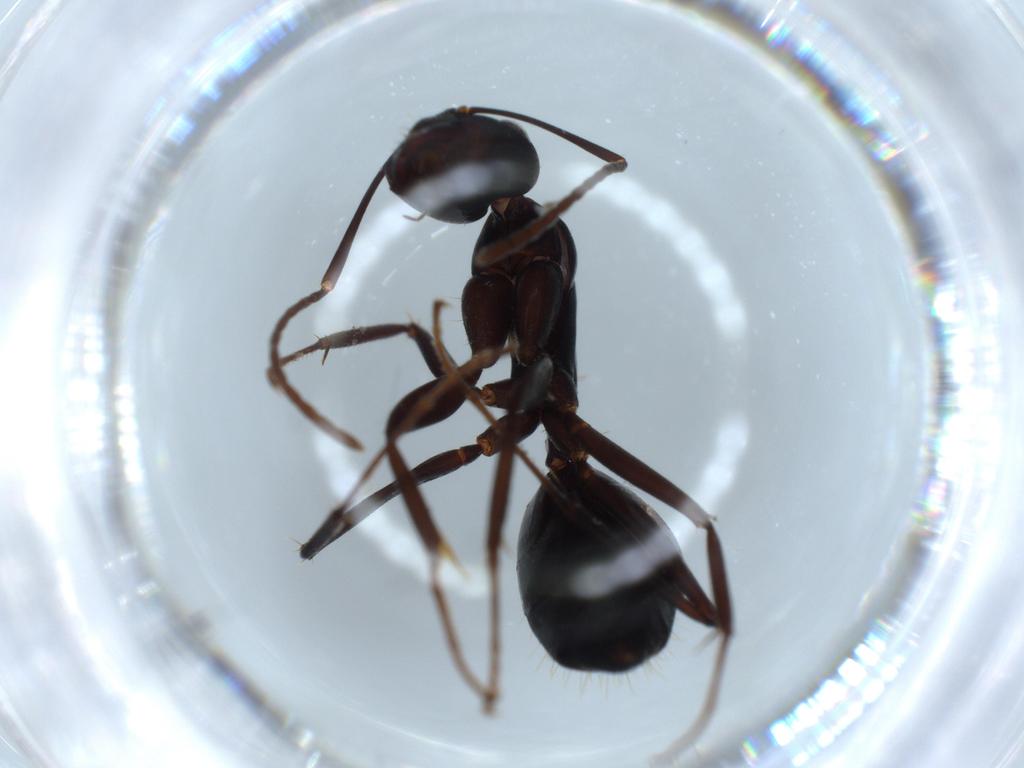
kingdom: Animalia
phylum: Arthropoda
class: Insecta
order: Hymenoptera
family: Formicidae
